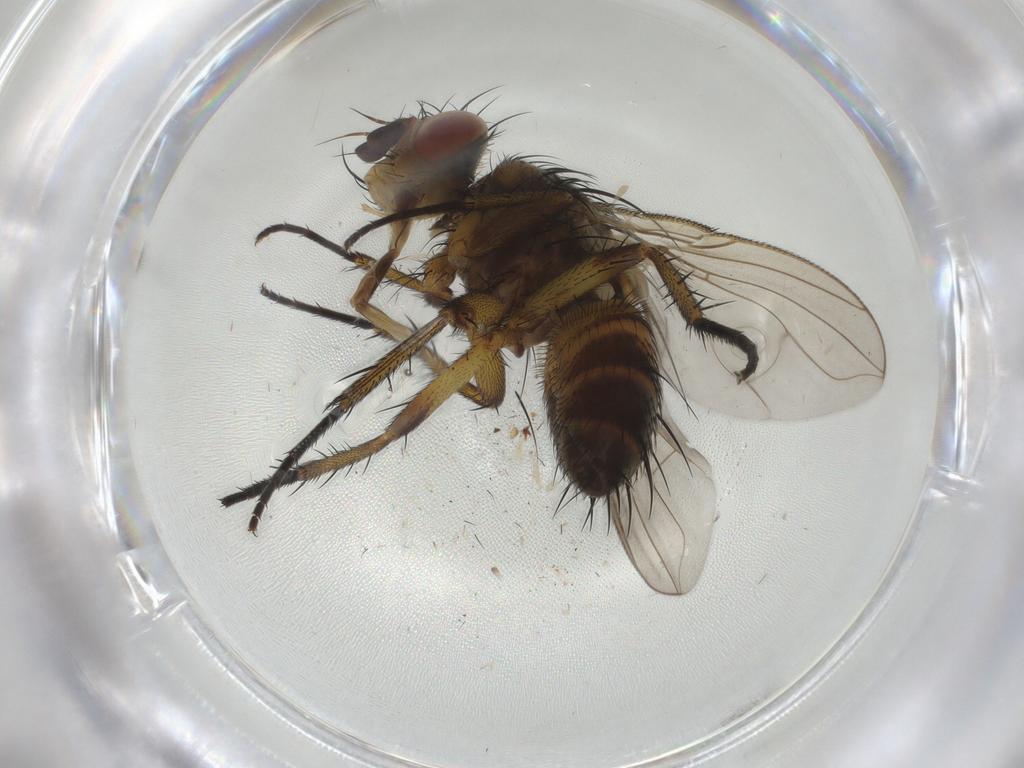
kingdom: Animalia
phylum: Arthropoda
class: Insecta
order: Diptera
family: Tachinidae
